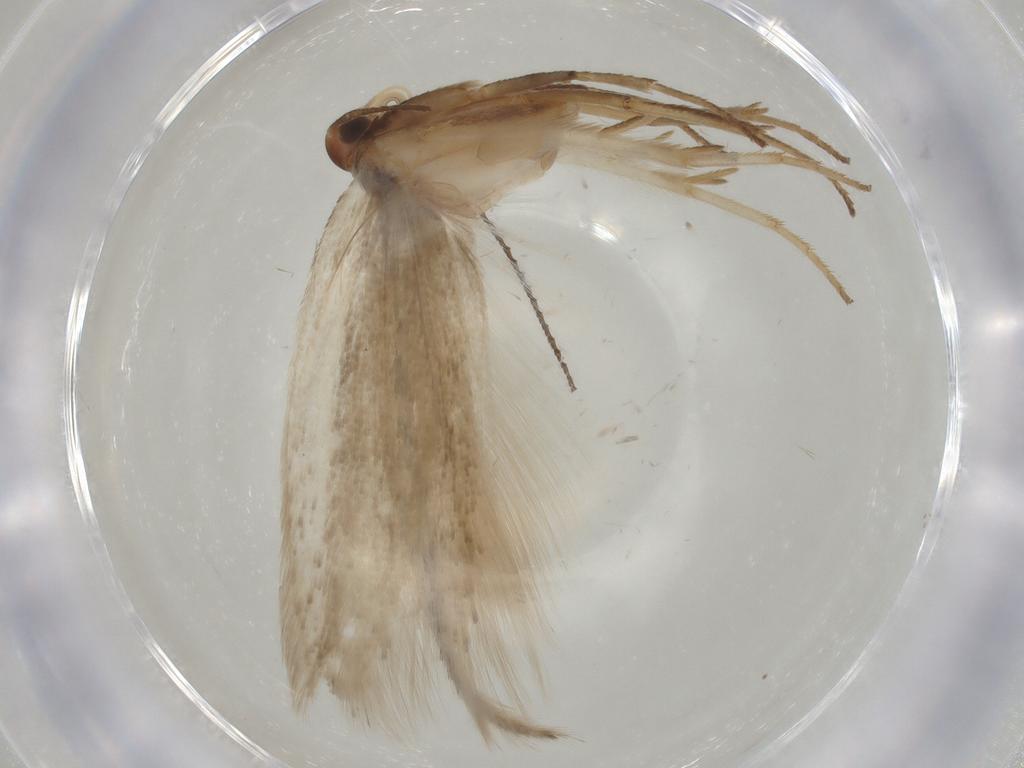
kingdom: Animalia
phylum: Arthropoda
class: Insecta
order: Lepidoptera
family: Gelechiidae
